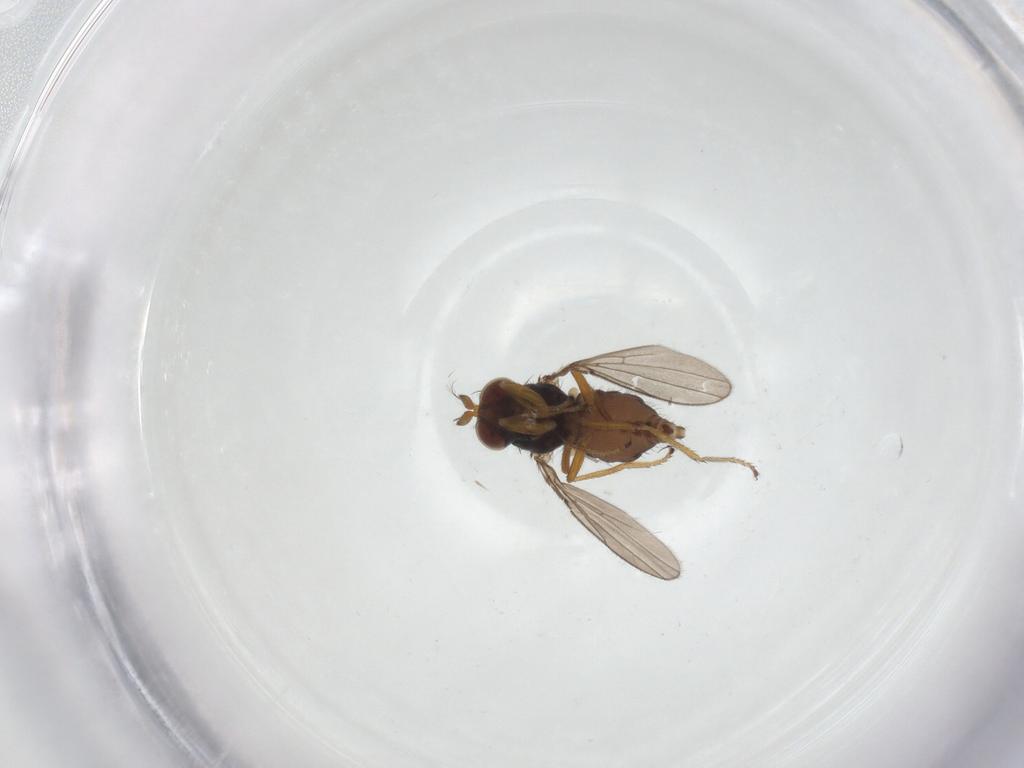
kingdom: Animalia
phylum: Arthropoda
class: Insecta
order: Diptera
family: Ephydridae
